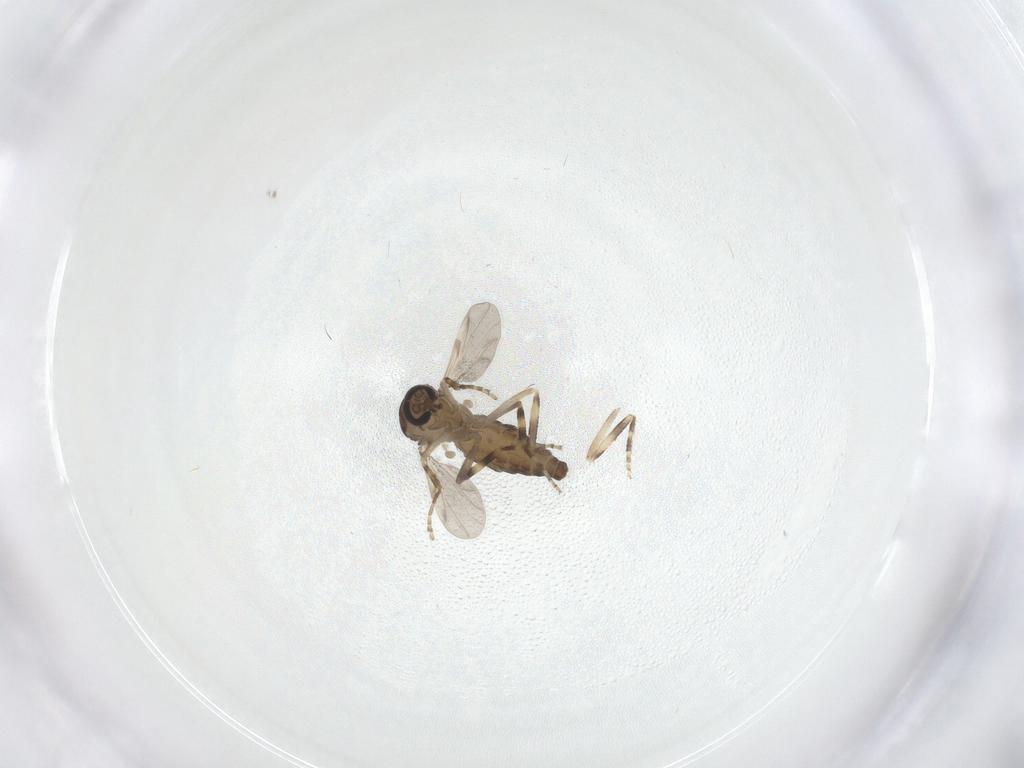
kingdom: Animalia
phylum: Arthropoda
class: Insecta
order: Diptera
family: Ceratopogonidae
